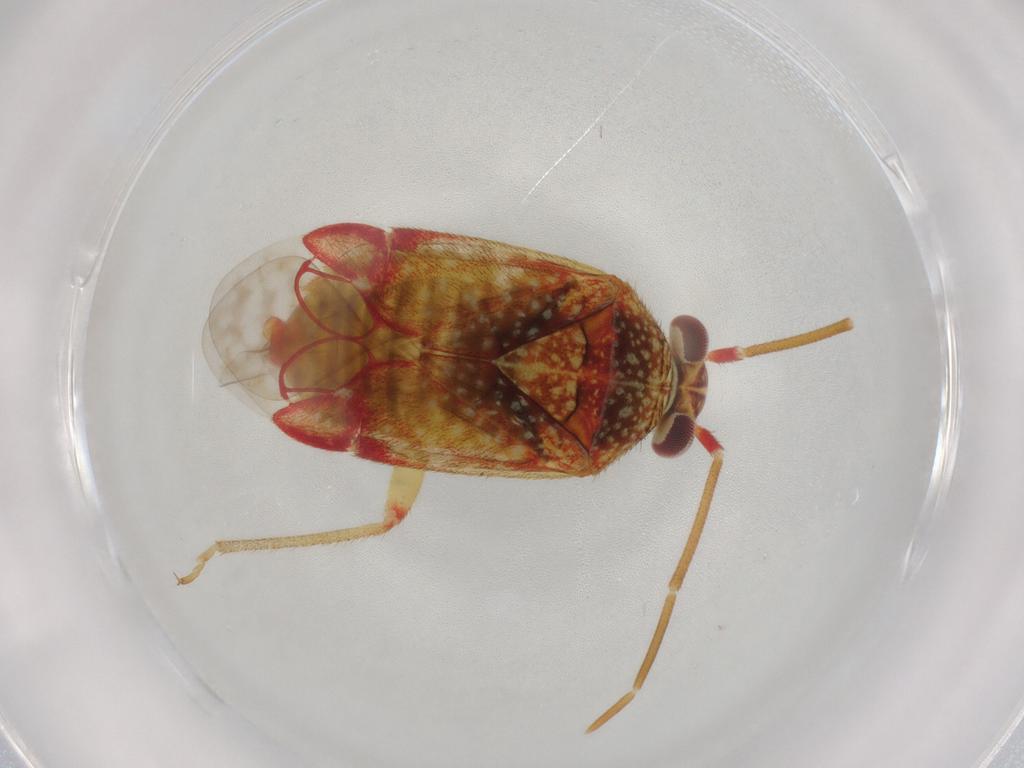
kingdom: Animalia
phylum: Arthropoda
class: Insecta
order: Hemiptera
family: Miridae
